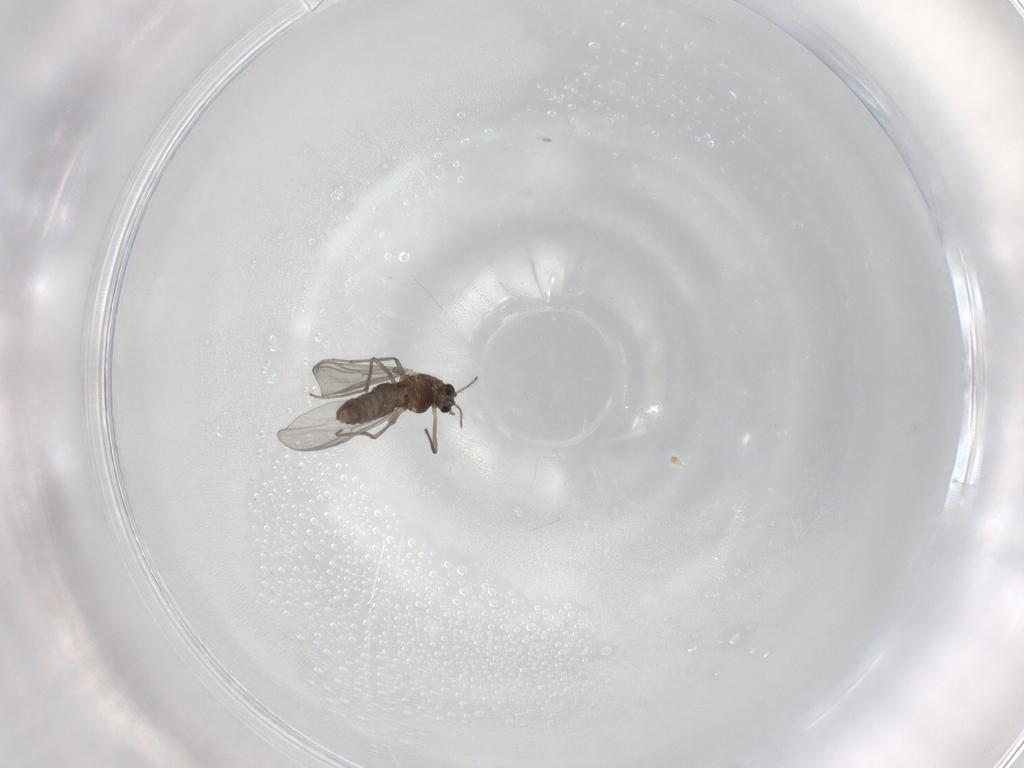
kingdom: Animalia
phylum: Arthropoda
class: Insecta
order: Diptera
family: Chironomidae
